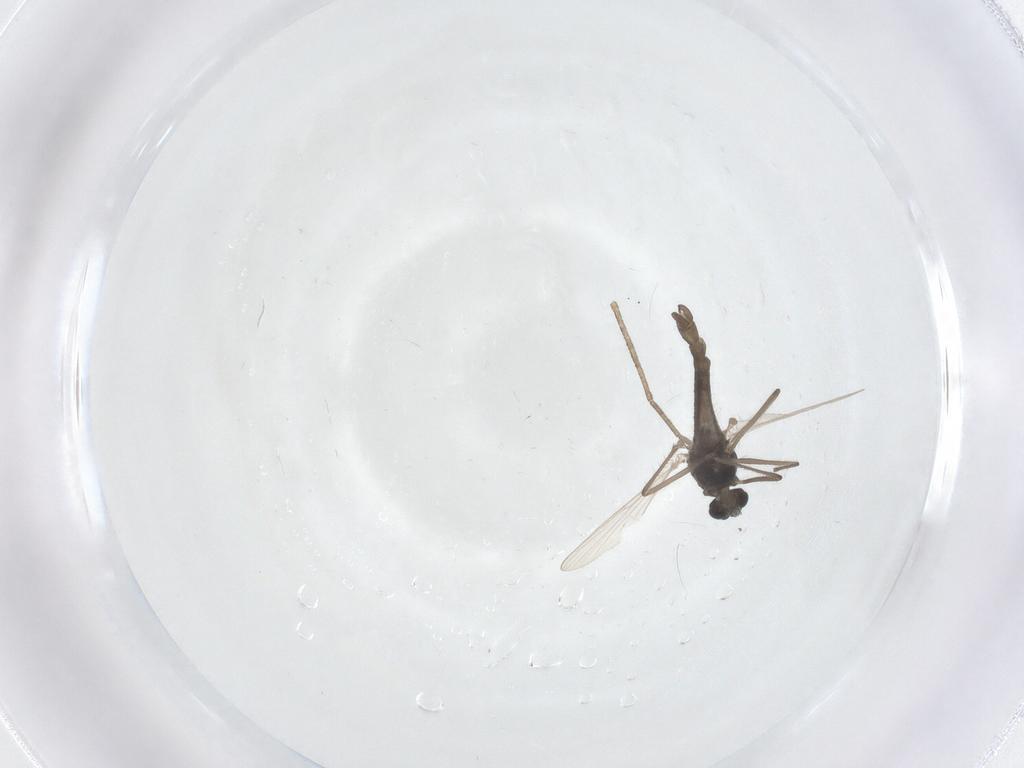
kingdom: Animalia
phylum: Arthropoda
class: Insecta
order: Diptera
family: Chironomidae
